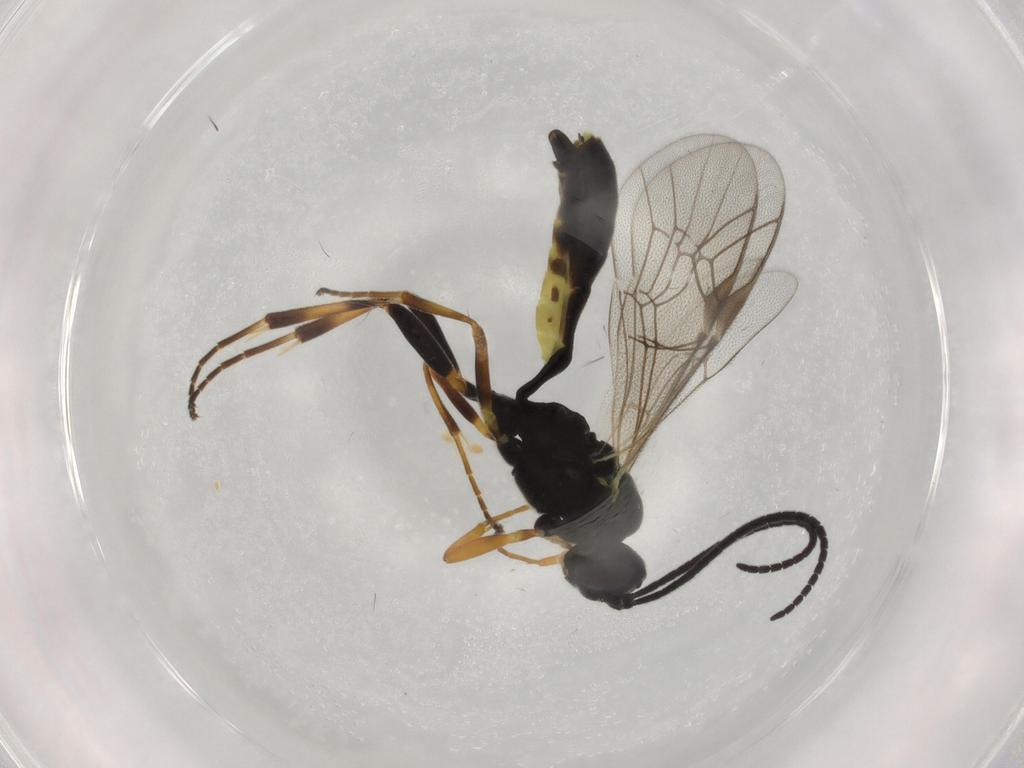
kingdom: Animalia
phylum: Arthropoda
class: Insecta
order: Hymenoptera
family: Ichneumonidae
